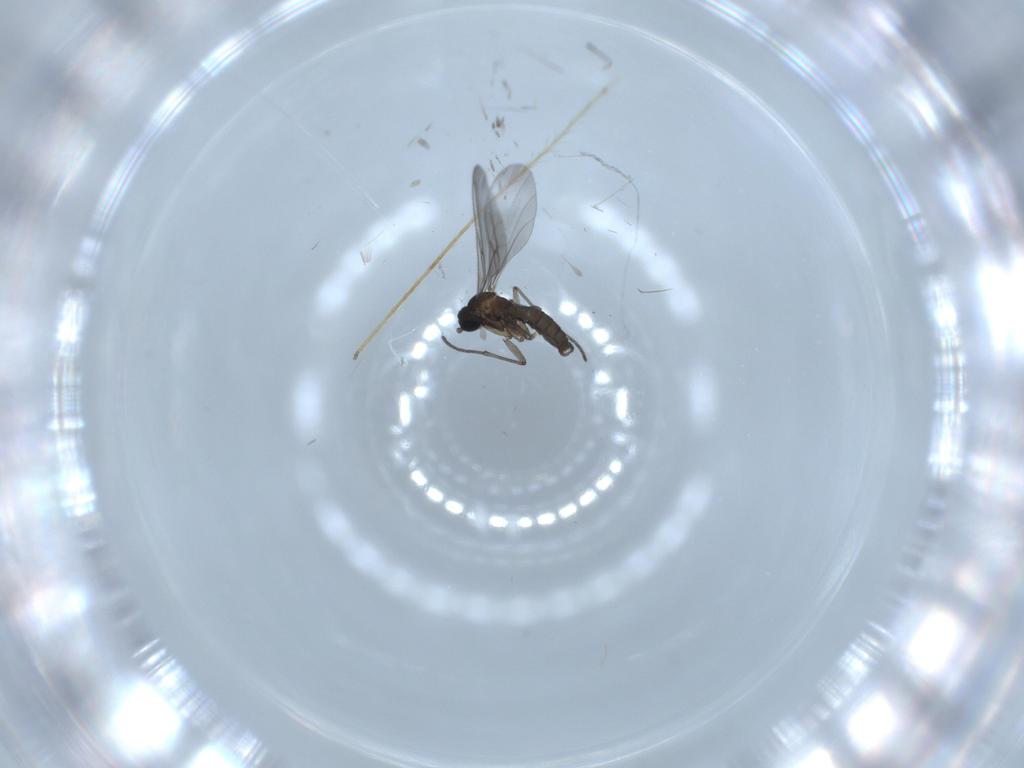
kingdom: Animalia
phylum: Arthropoda
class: Insecta
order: Diptera
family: Sciaridae
